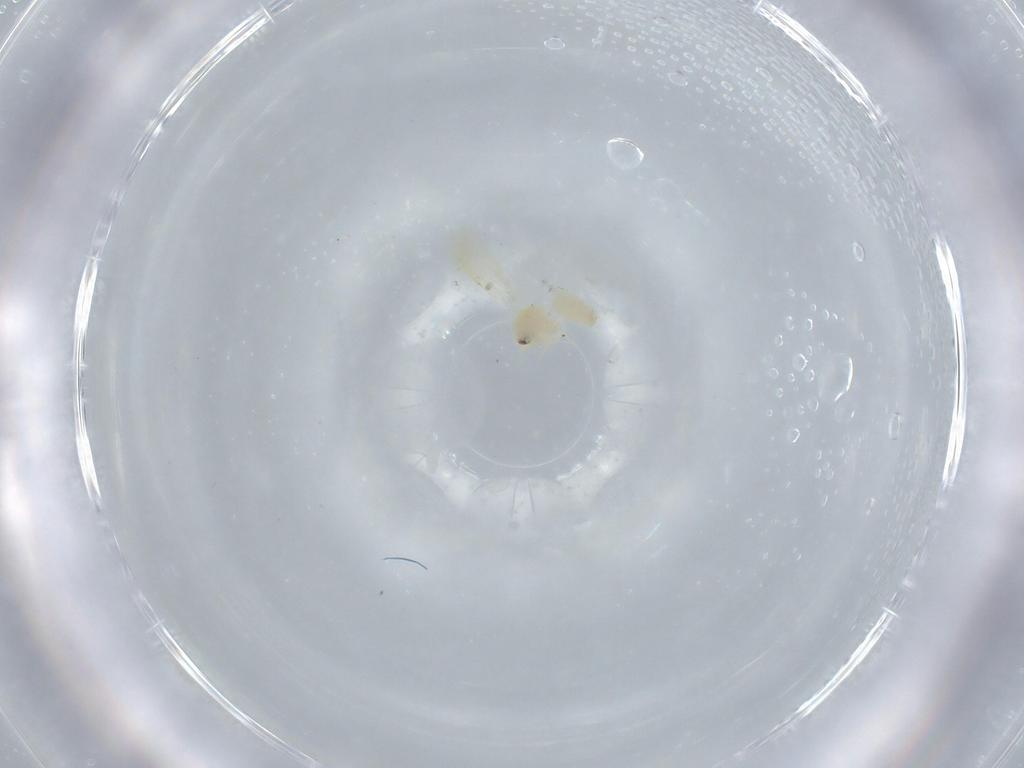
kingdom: Animalia
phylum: Arthropoda
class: Insecta
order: Hemiptera
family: Aleyrodidae
